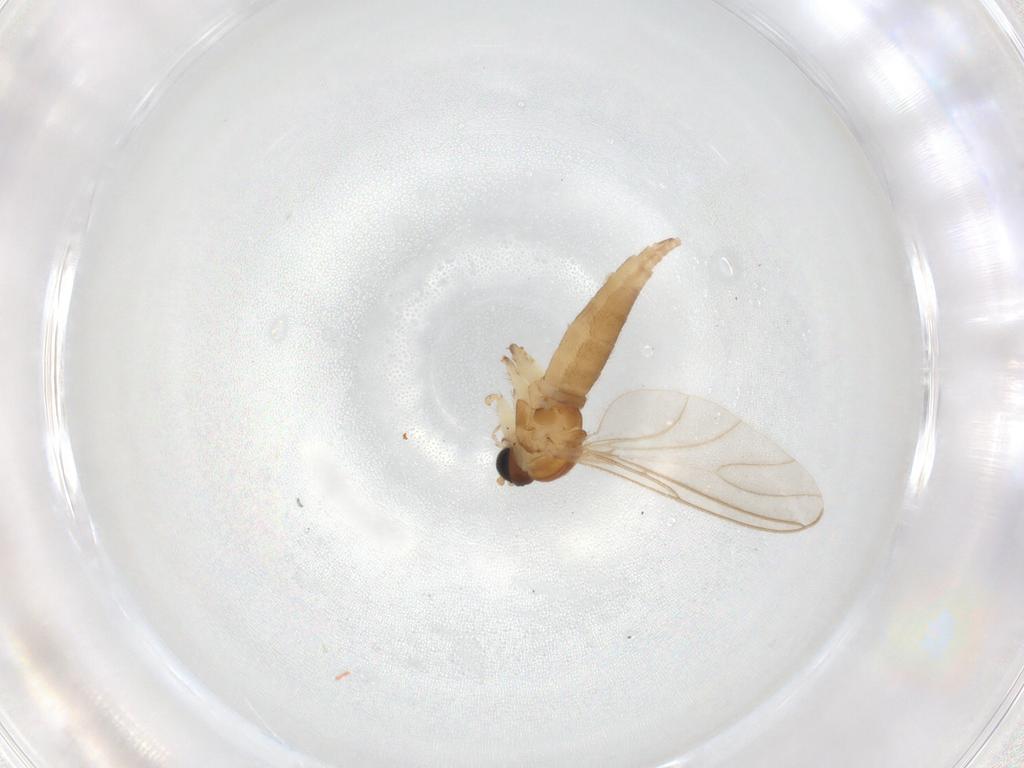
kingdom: Animalia
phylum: Arthropoda
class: Insecta
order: Diptera
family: Sciaridae
